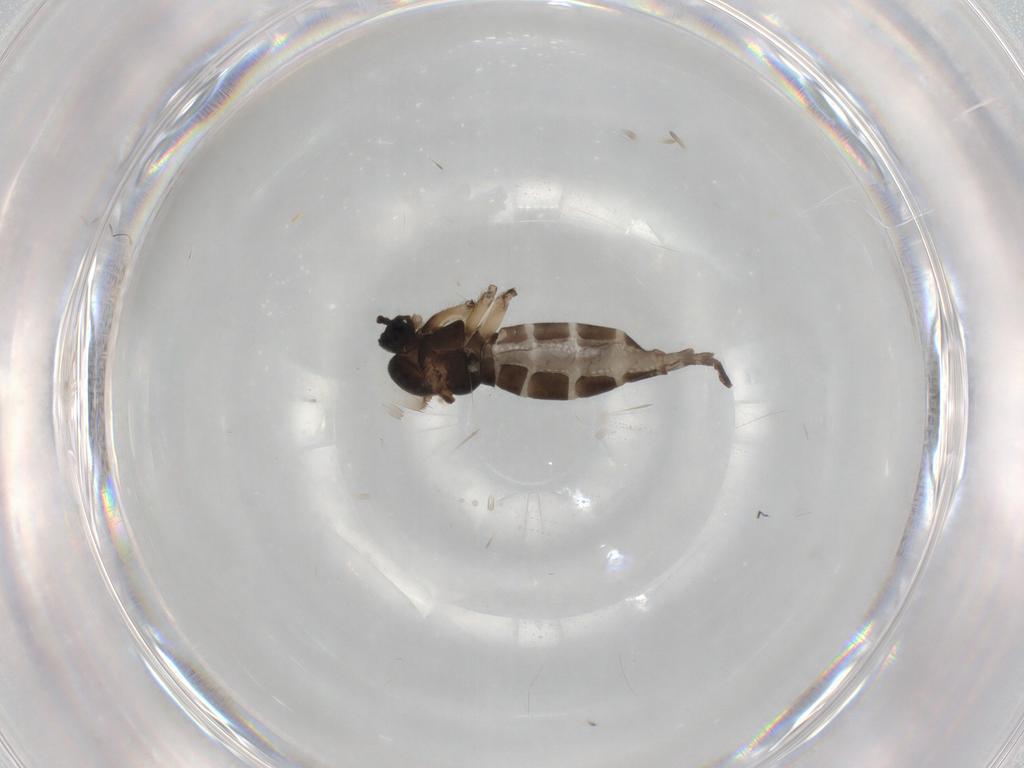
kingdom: Animalia
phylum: Arthropoda
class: Insecta
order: Diptera
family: Sciaridae
